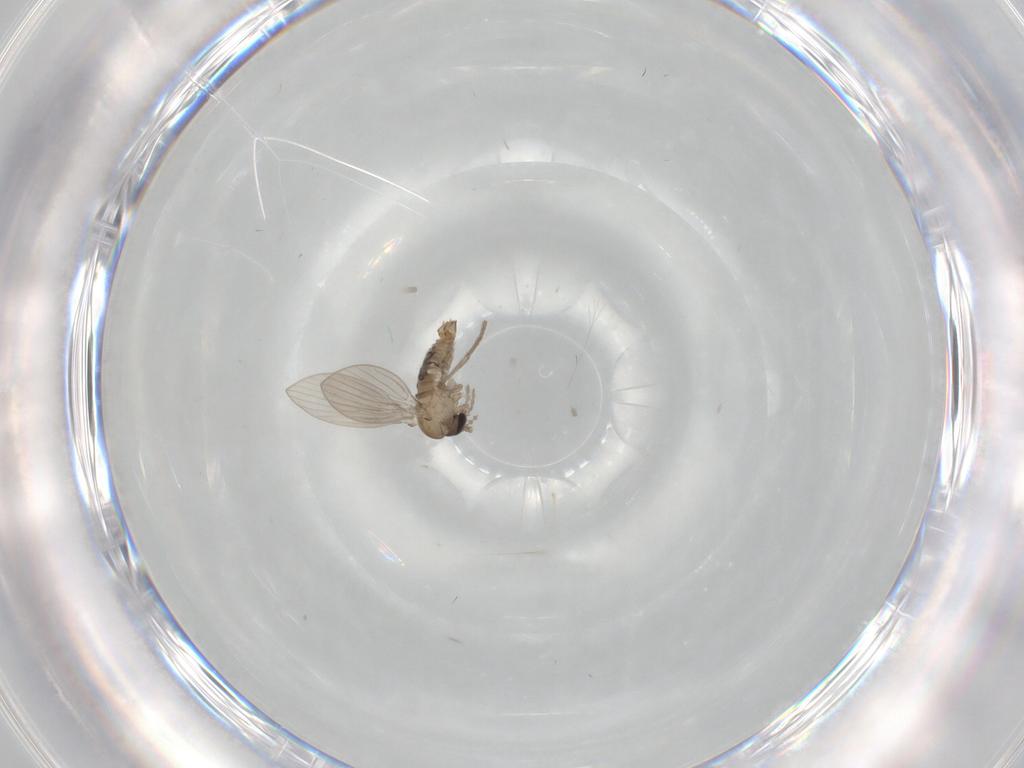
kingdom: Animalia
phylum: Arthropoda
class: Insecta
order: Diptera
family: Psychodidae
